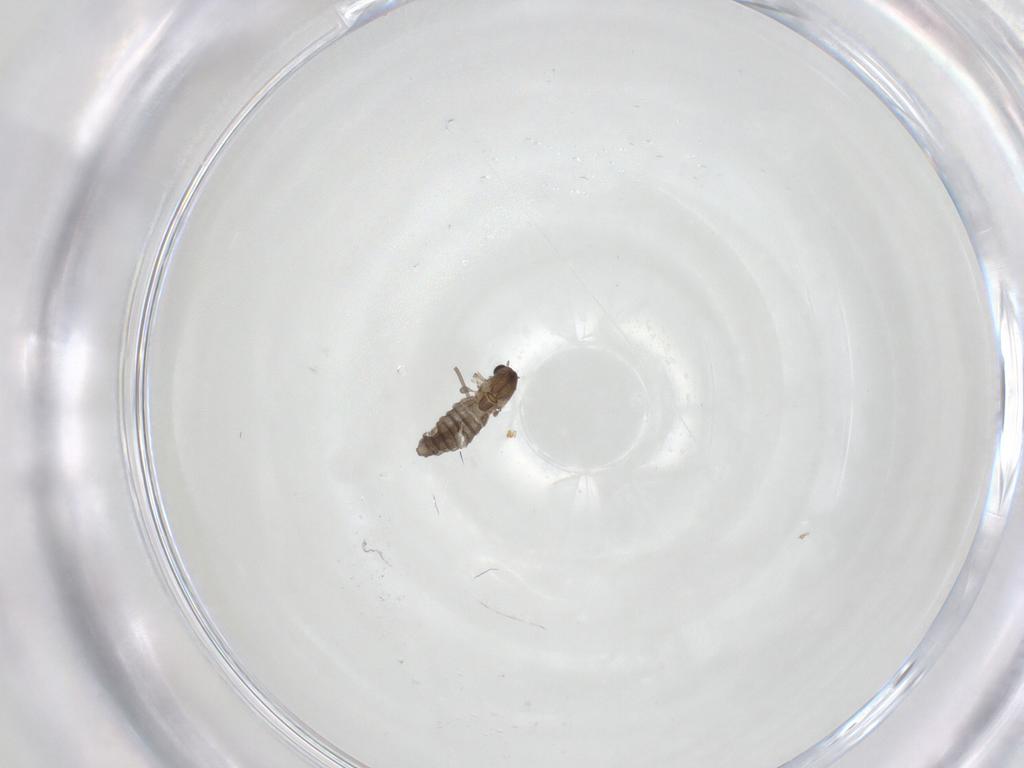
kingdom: Animalia
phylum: Arthropoda
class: Insecta
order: Diptera
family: Chironomidae
